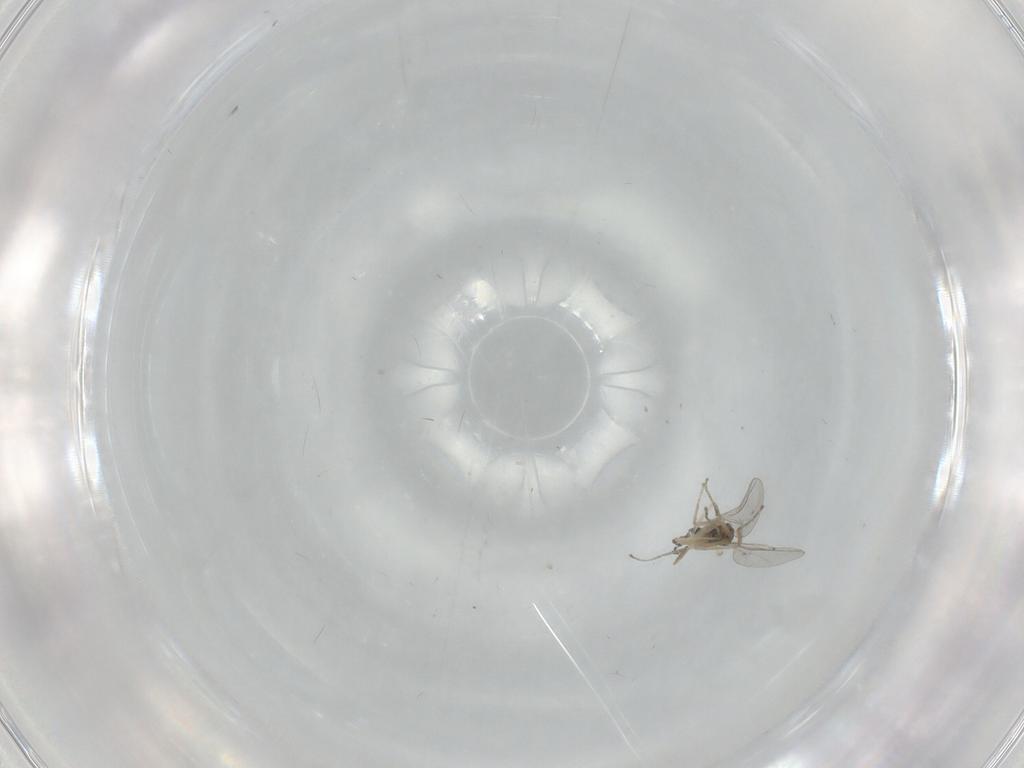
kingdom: Animalia
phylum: Arthropoda
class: Insecta
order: Diptera
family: Cecidomyiidae
